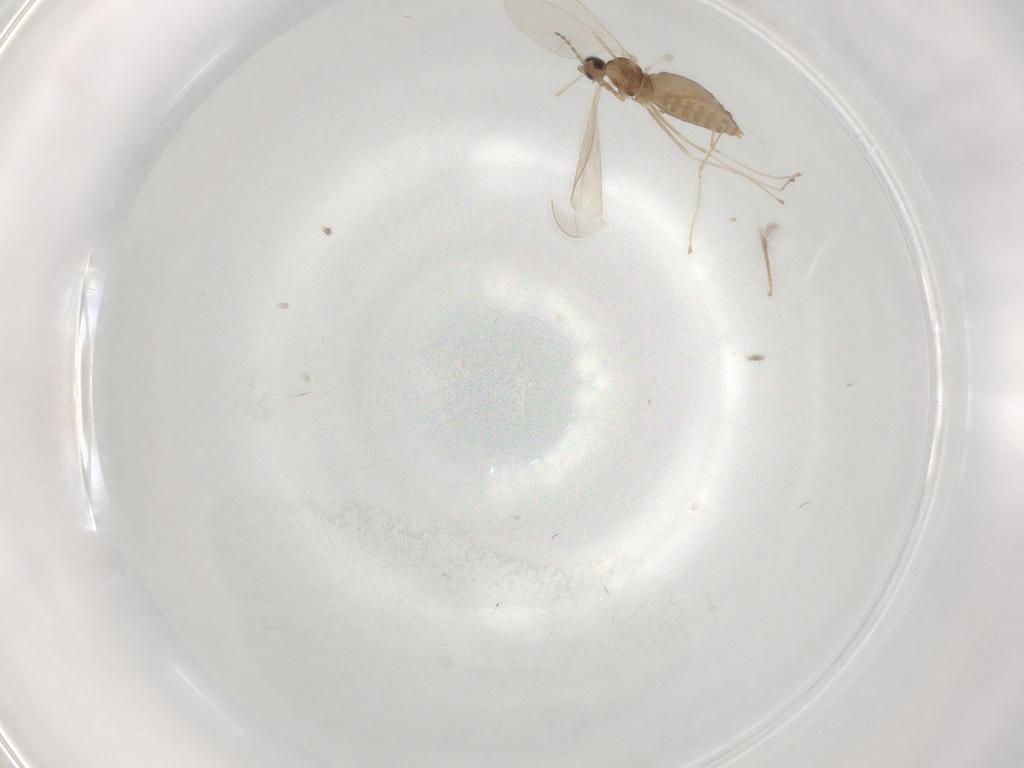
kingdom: Animalia
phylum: Arthropoda
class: Insecta
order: Diptera
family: Cecidomyiidae
